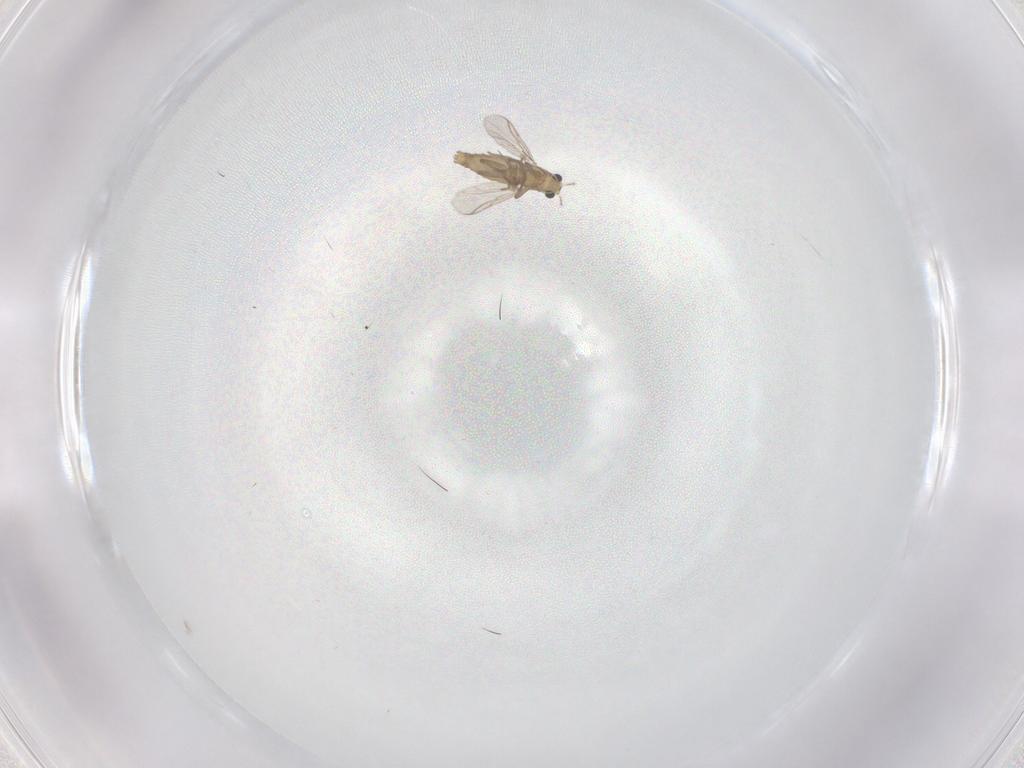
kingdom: Animalia
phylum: Arthropoda
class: Insecta
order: Diptera
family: Chironomidae
